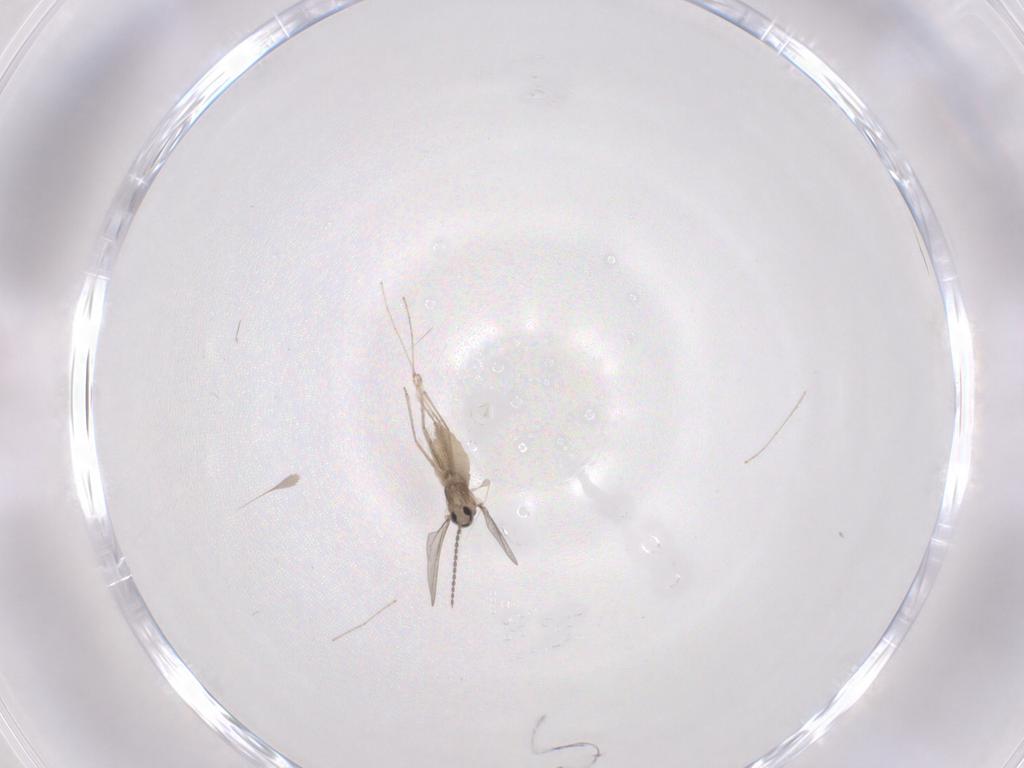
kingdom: Animalia
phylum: Arthropoda
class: Insecta
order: Diptera
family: Chironomidae
